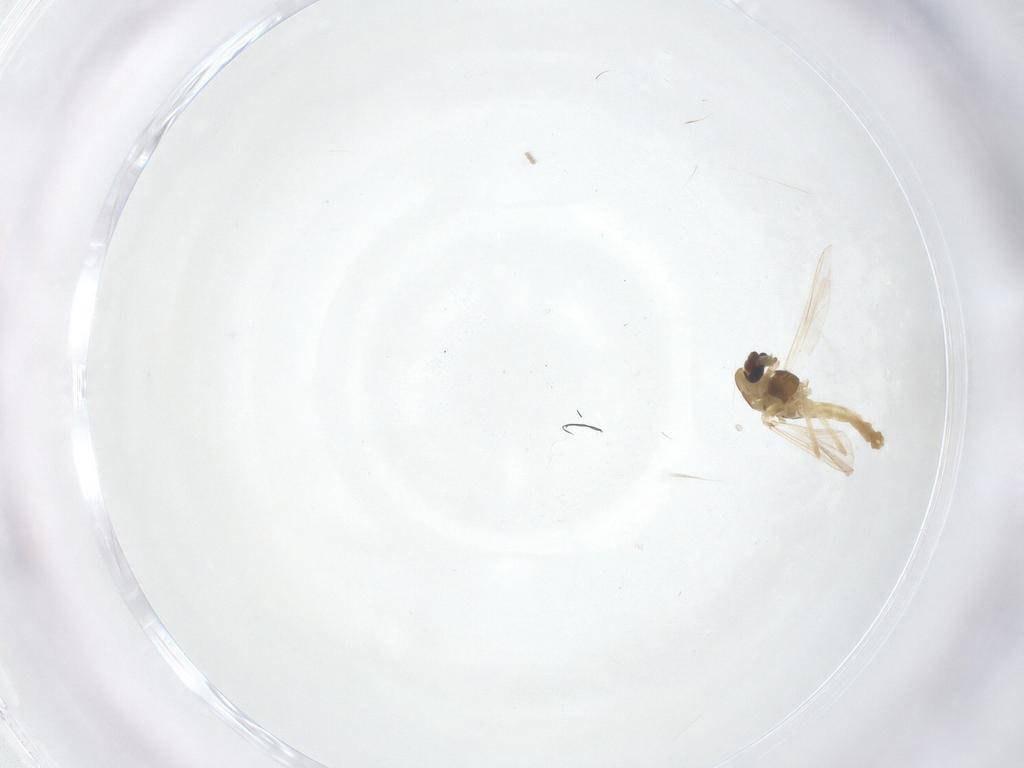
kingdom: Animalia
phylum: Arthropoda
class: Insecta
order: Diptera
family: Chironomidae
